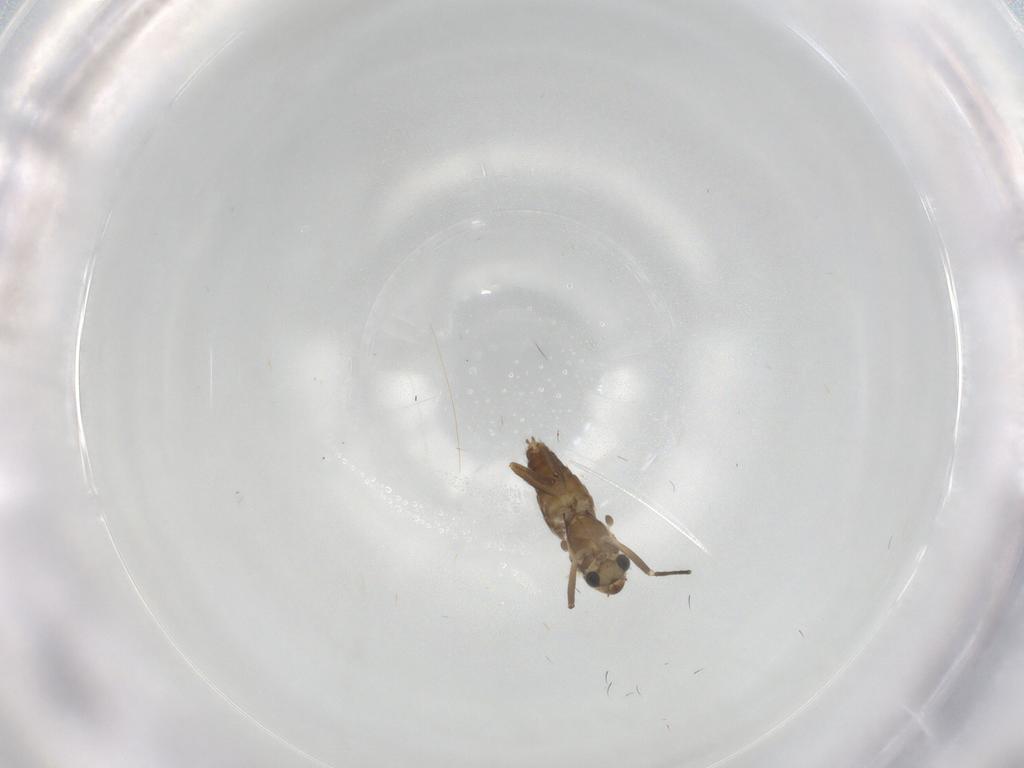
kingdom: Animalia
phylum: Arthropoda
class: Insecta
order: Diptera
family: Chironomidae
